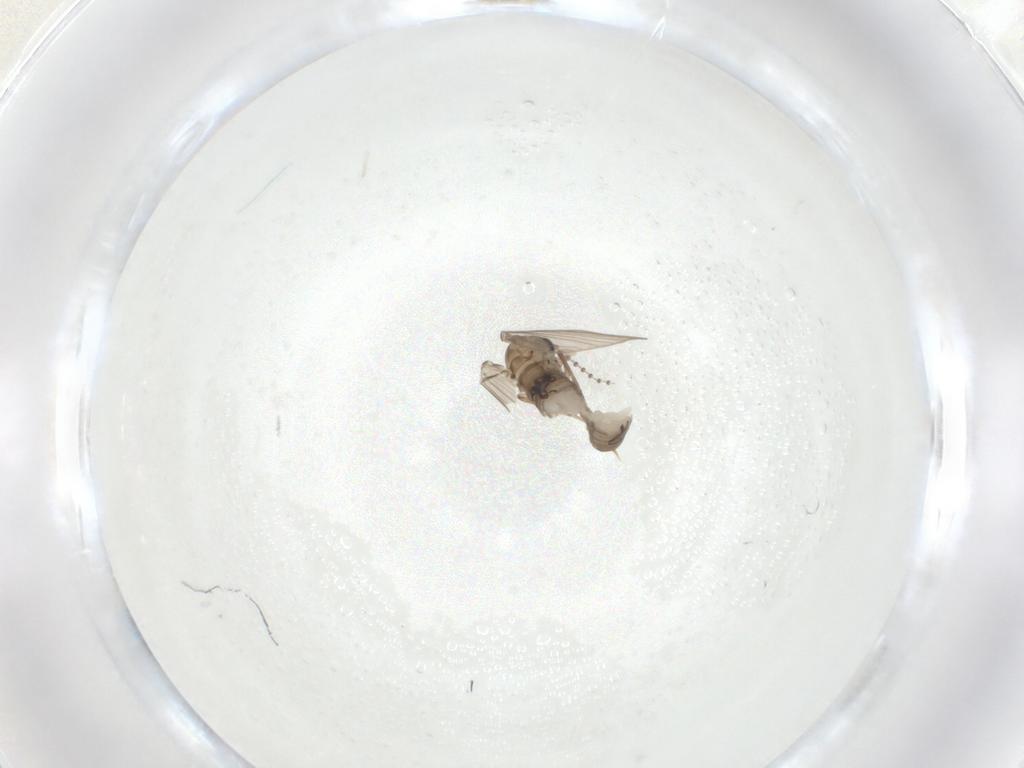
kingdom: Animalia
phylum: Arthropoda
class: Insecta
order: Diptera
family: Psychodidae
